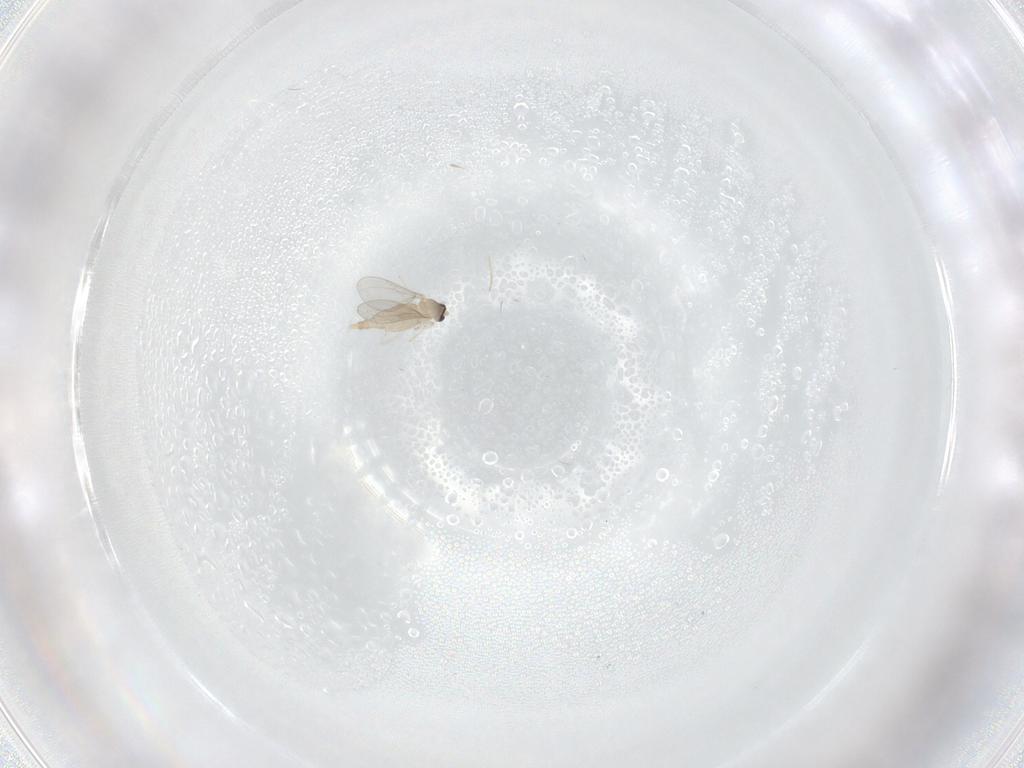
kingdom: Animalia
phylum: Arthropoda
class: Insecta
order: Diptera
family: Cecidomyiidae
